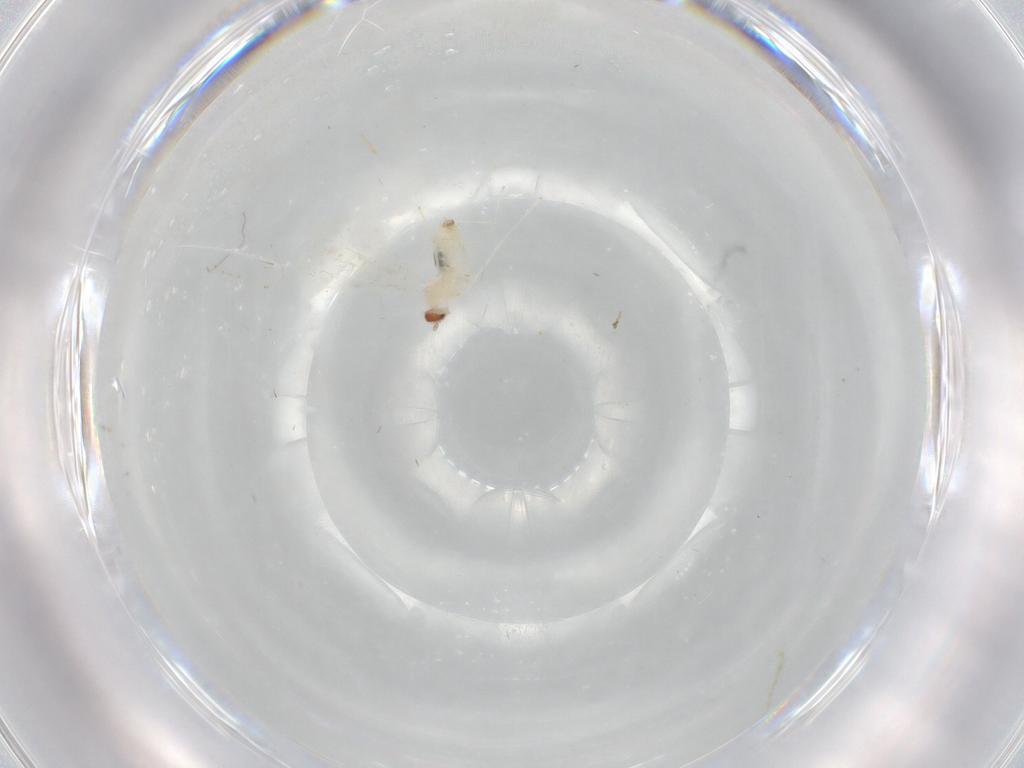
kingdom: Animalia
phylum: Arthropoda
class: Insecta
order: Diptera
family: Cecidomyiidae
